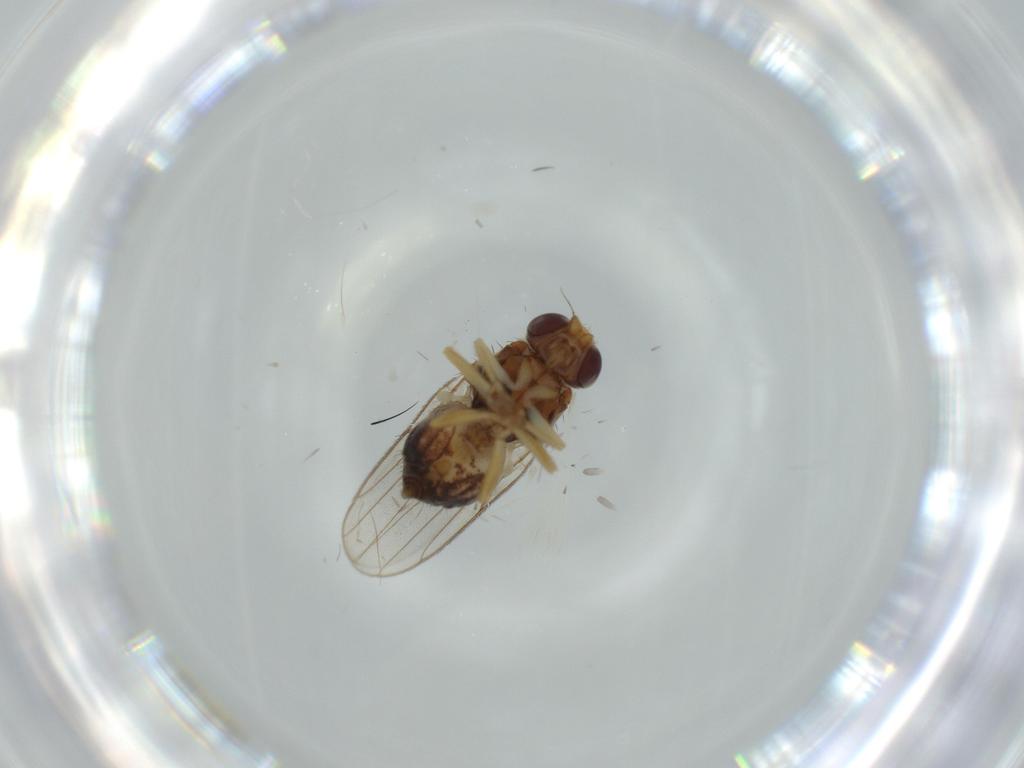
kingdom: Animalia
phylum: Arthropoda
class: Insecta
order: Diptera
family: Chloropidae
